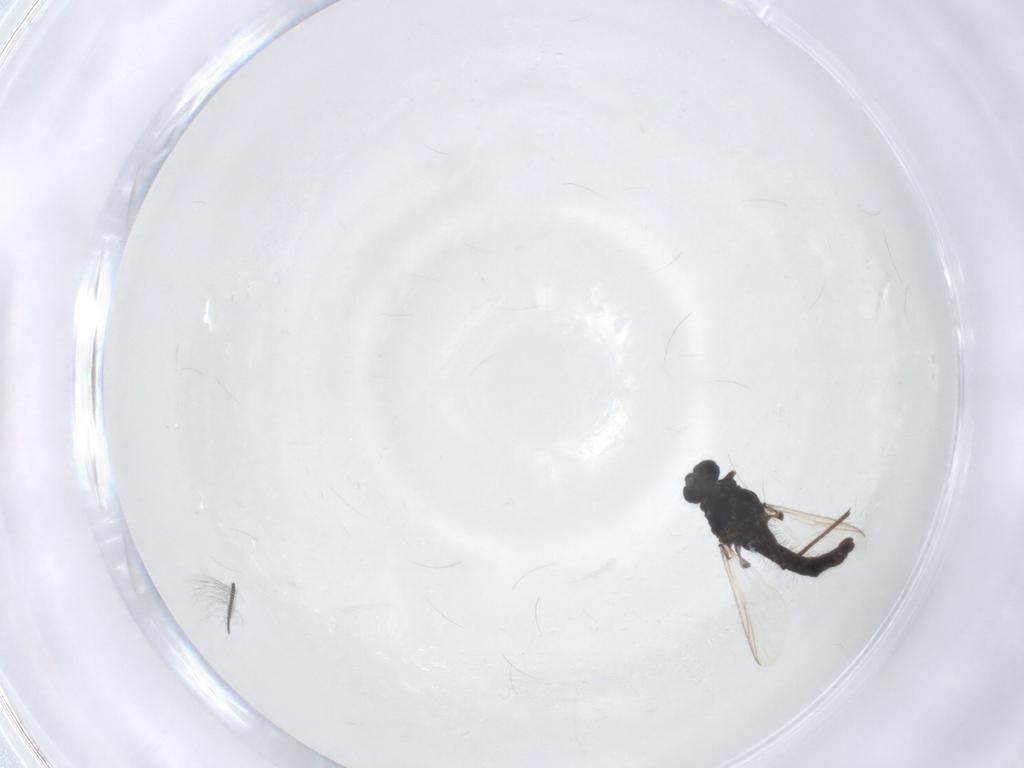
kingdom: Animalia
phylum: Arthropoda
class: Insecta
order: Diptera
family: Chironomidae
